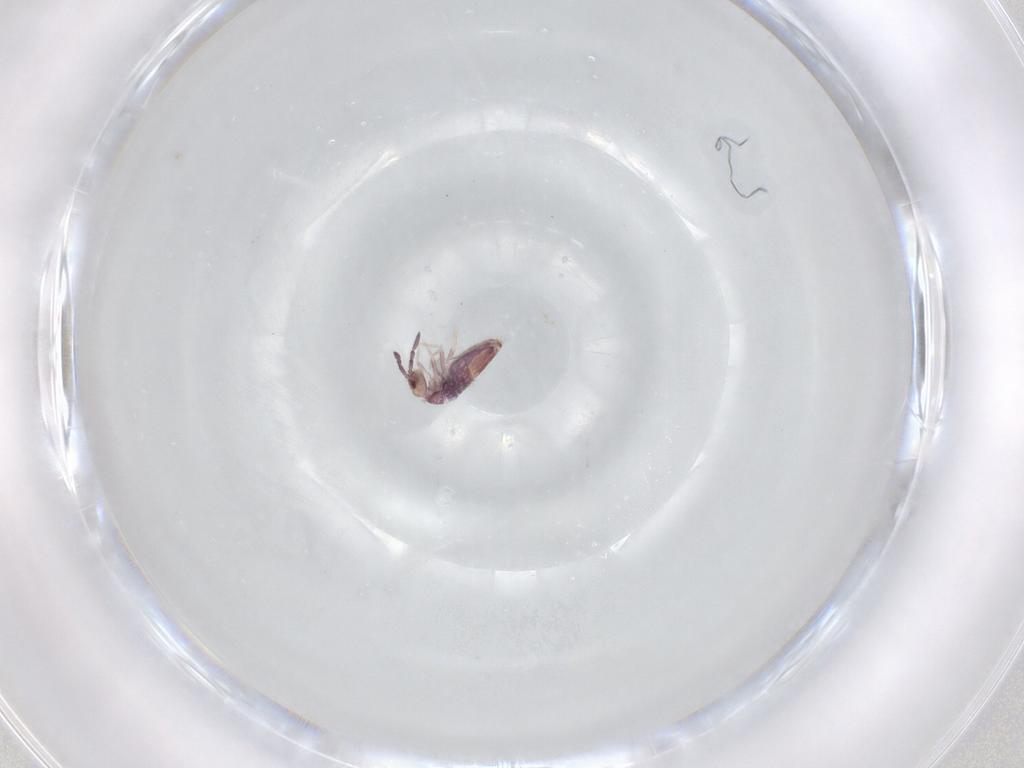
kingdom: Animalia
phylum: Arthropoda
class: Collembola
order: Entomobryomorpha
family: Entomobryidae
